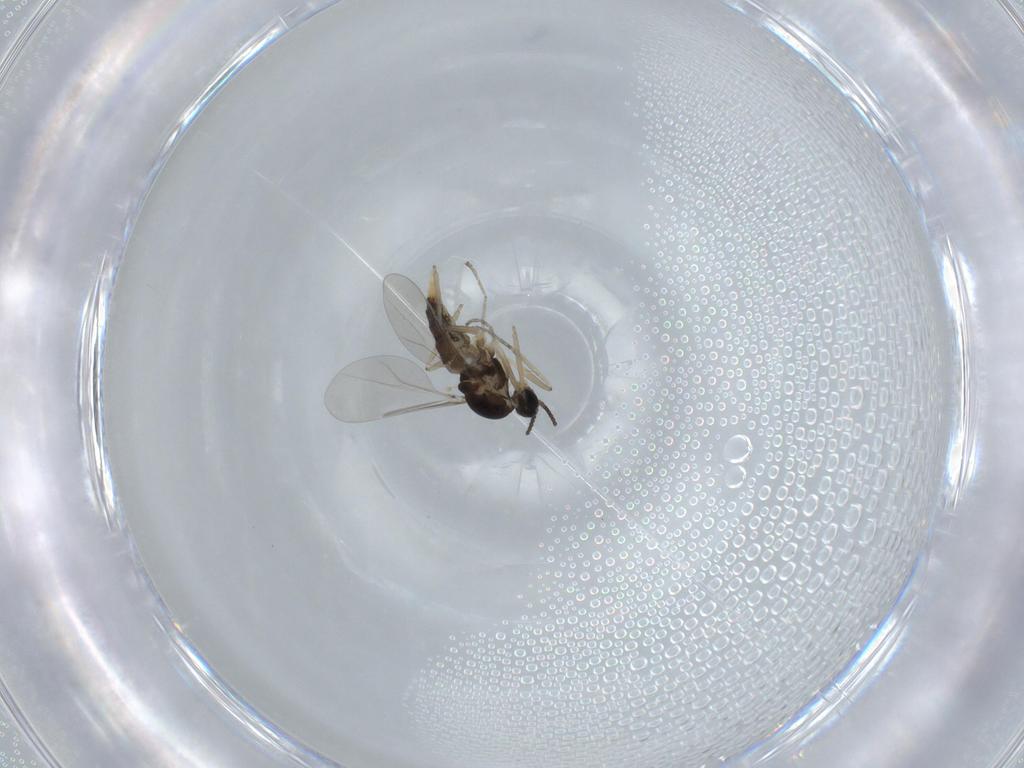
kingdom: Animalia
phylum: Arthropoda
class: Insecta
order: Diptera
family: Cecidomyiidae
